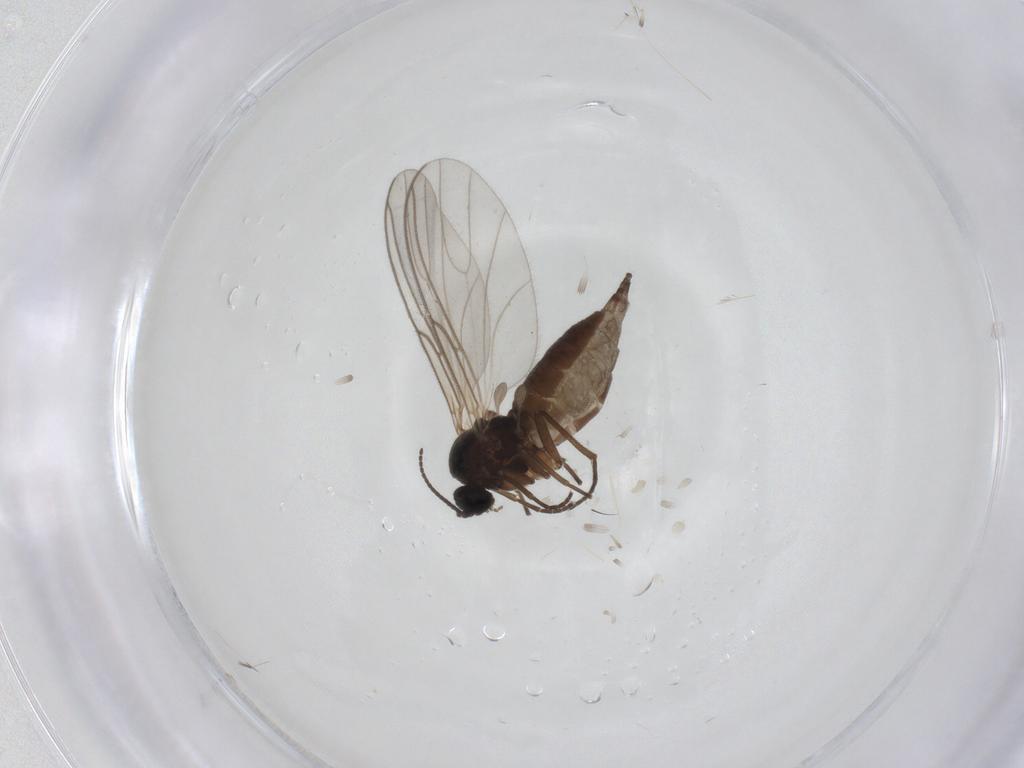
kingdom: Animalia
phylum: Arthropoda
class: Insecta
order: Diptera
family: Sciaridae
